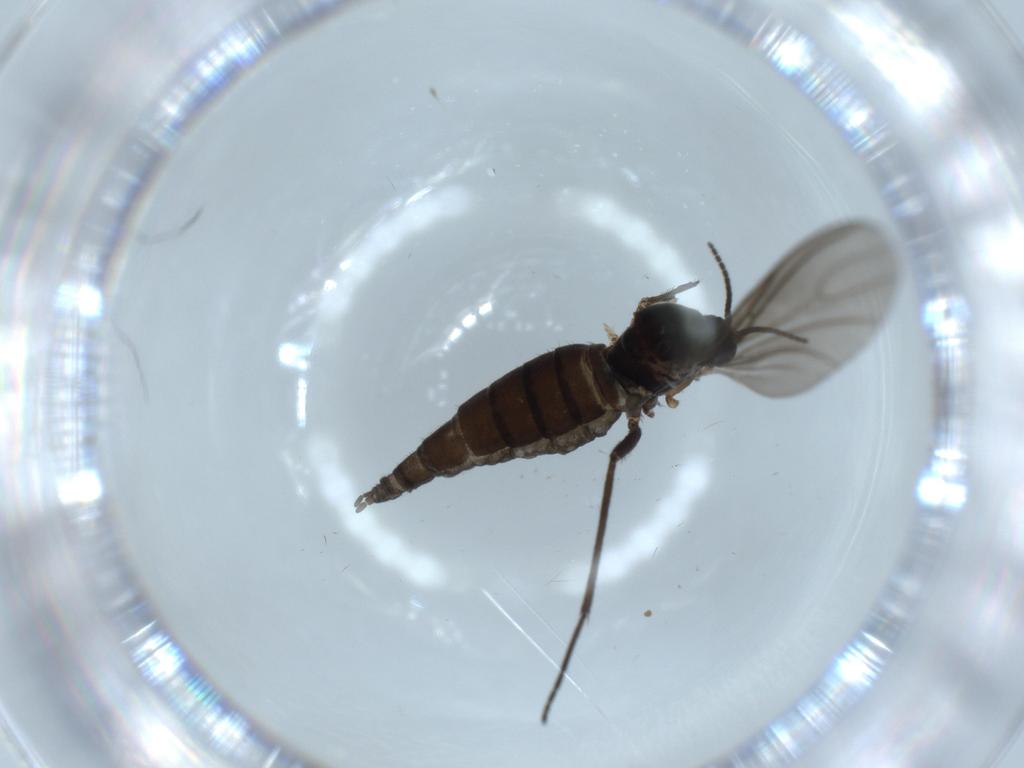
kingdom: Animalia
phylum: Arthropoda
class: Insecta
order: Diptera
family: Sciaridae
